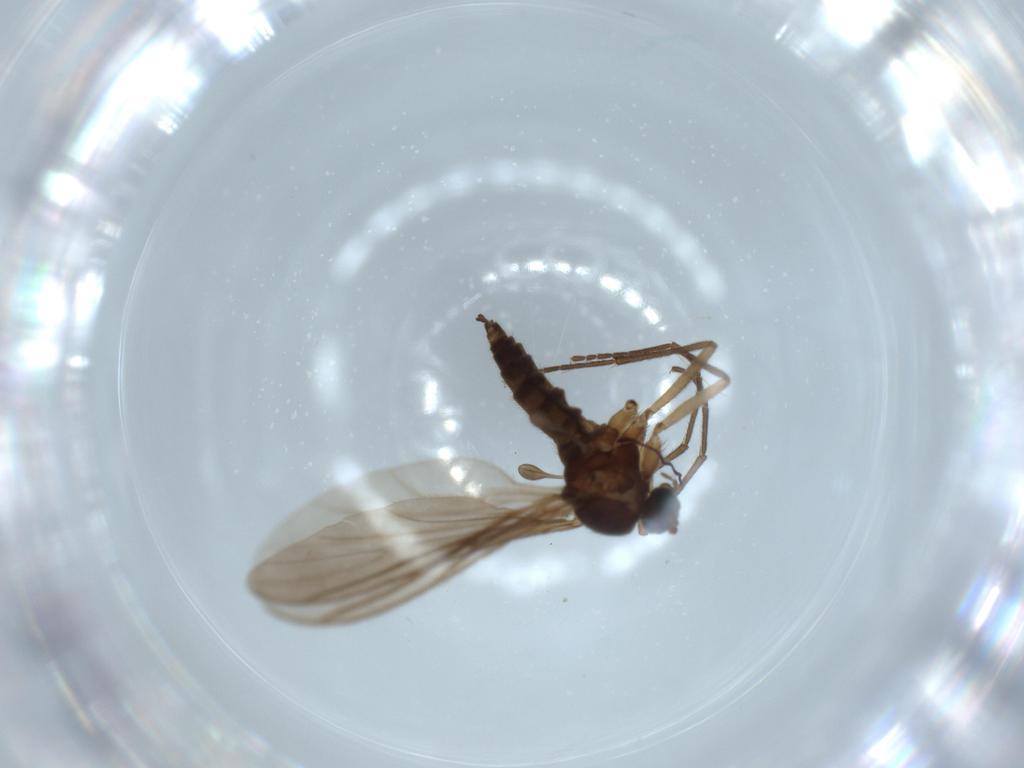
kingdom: Animalia
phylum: Arthropoda
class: Insecta
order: Diptera
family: Sciaridae
